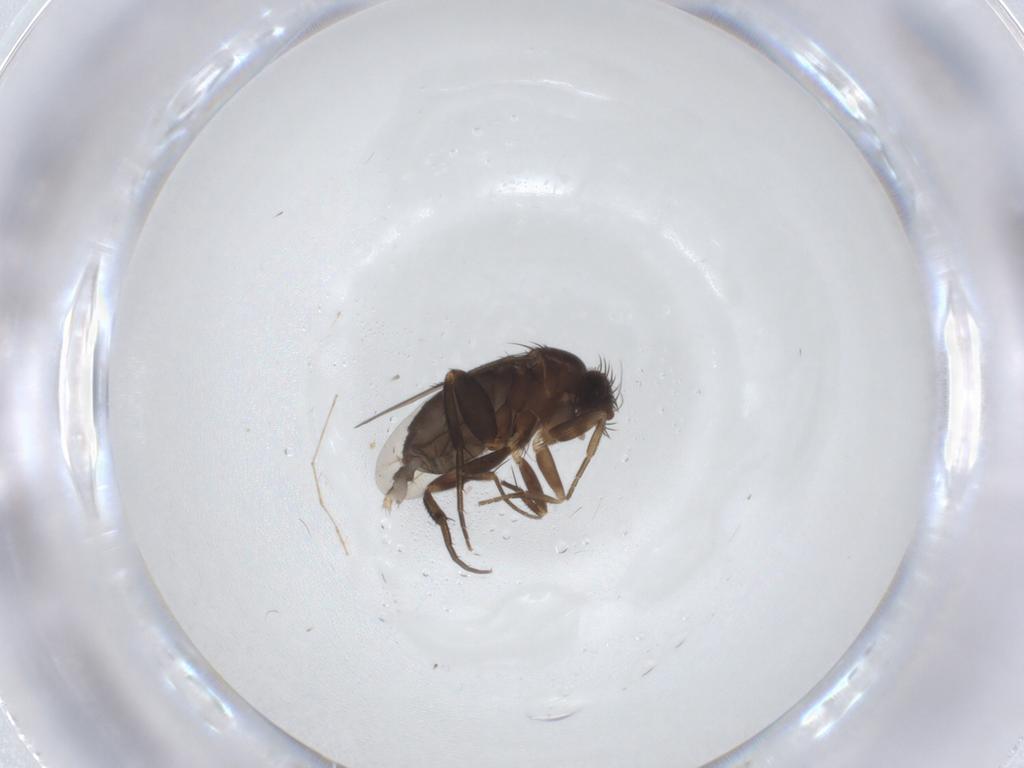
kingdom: Animalia
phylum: Arthropoda
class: Insecta
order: Diptera
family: Phoridae
